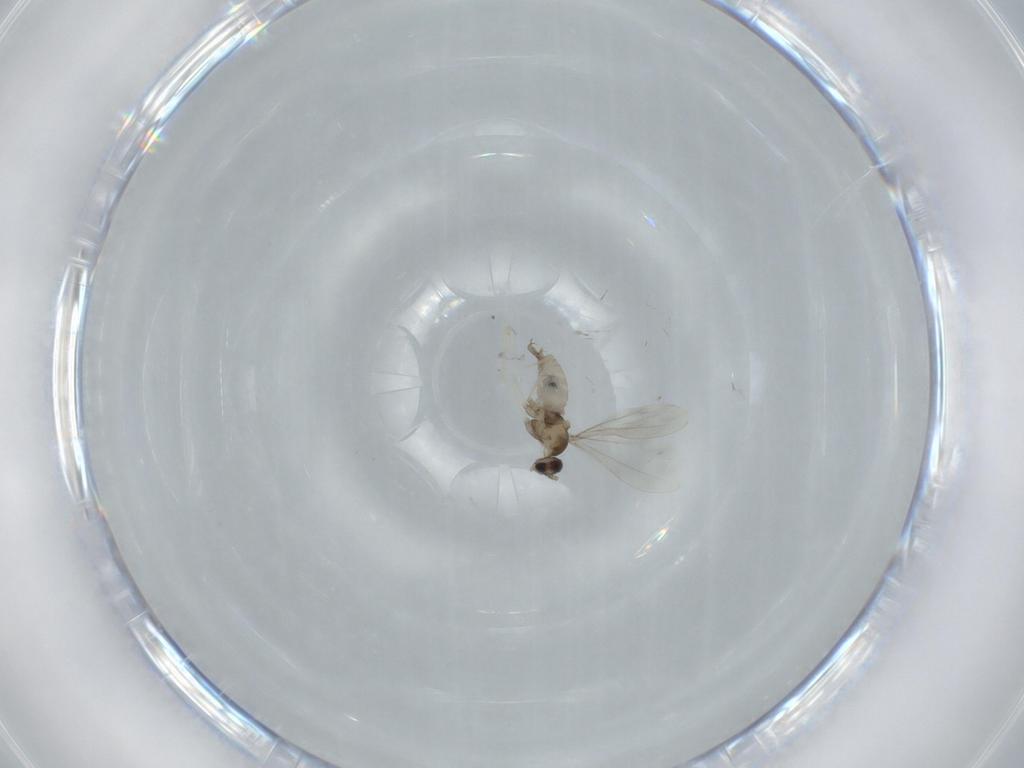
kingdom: Animalia
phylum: Arthropoda
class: Insecta
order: Diptera
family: Cecidomyiidae
